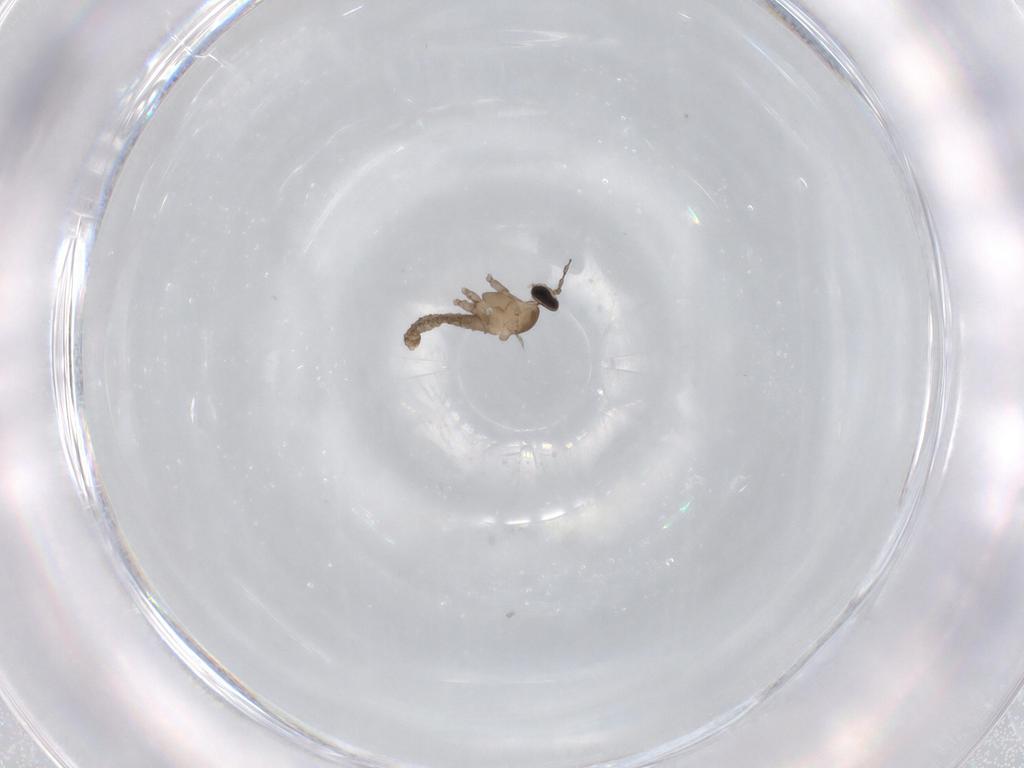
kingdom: Animalia
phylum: Arthropoda
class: Insecta
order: Diptera
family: Cecidomyiidae
